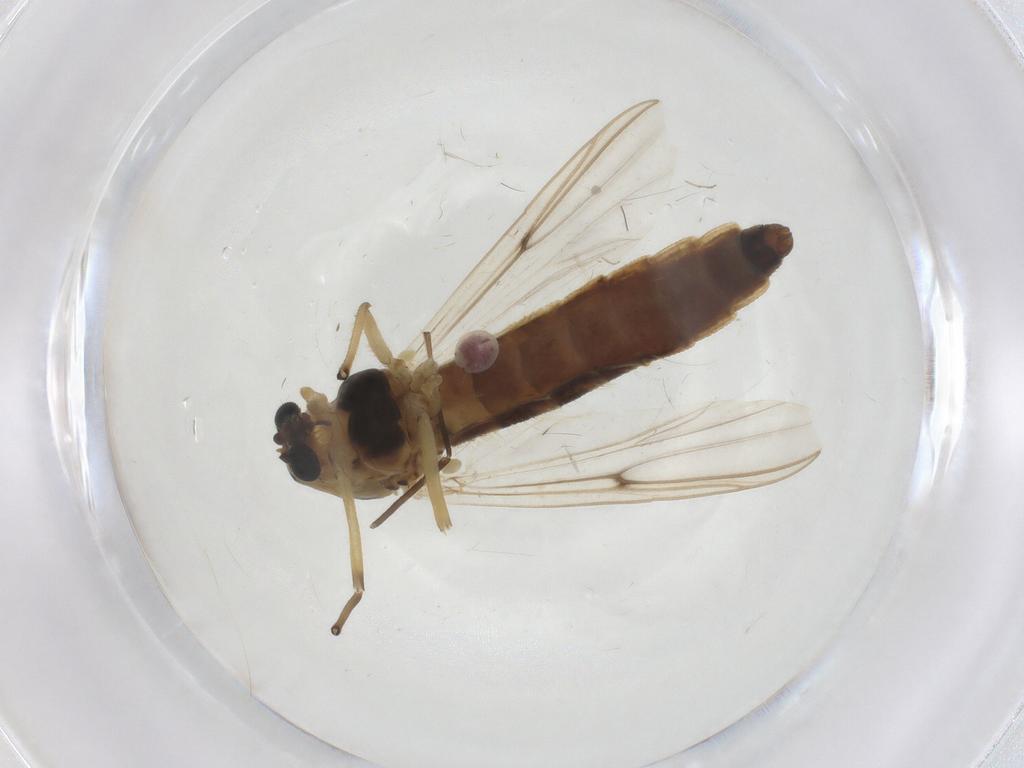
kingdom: Animalia
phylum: Arthropoda
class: Insecta
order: Diptera
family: Chironomidae
